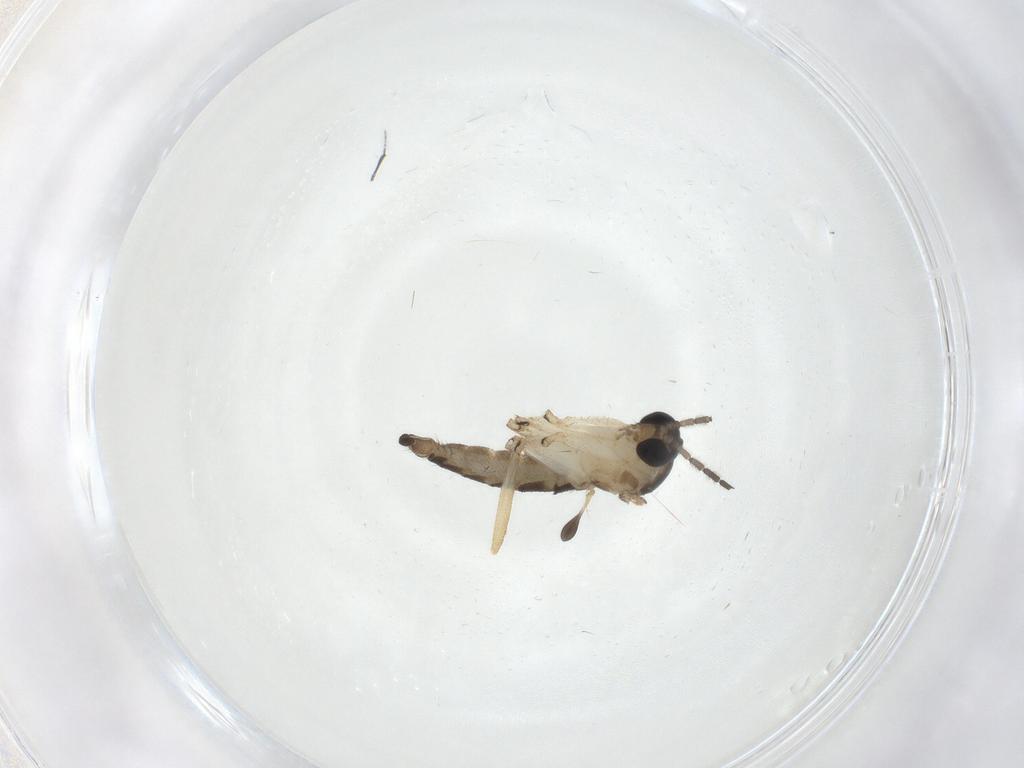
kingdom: Animalia
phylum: Arthropoda
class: Insecta
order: Diptera
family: Sciaridae
